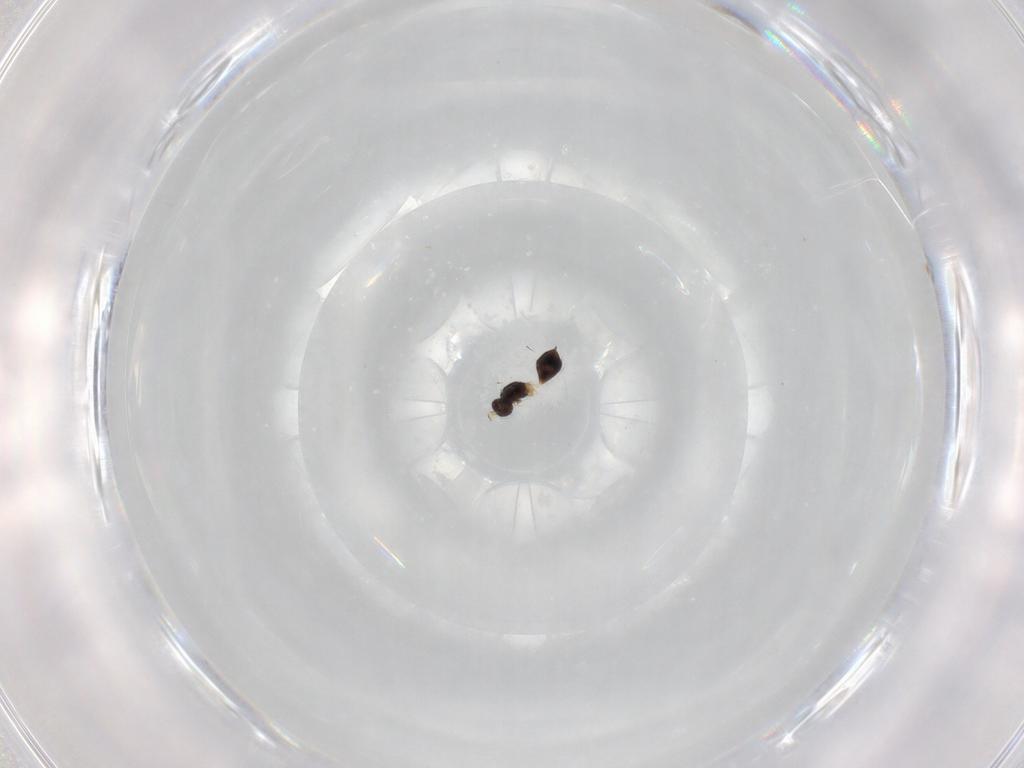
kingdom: Animalia
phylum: Arthropoda
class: Insecta
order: Hymenoptera
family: Mymaridae
